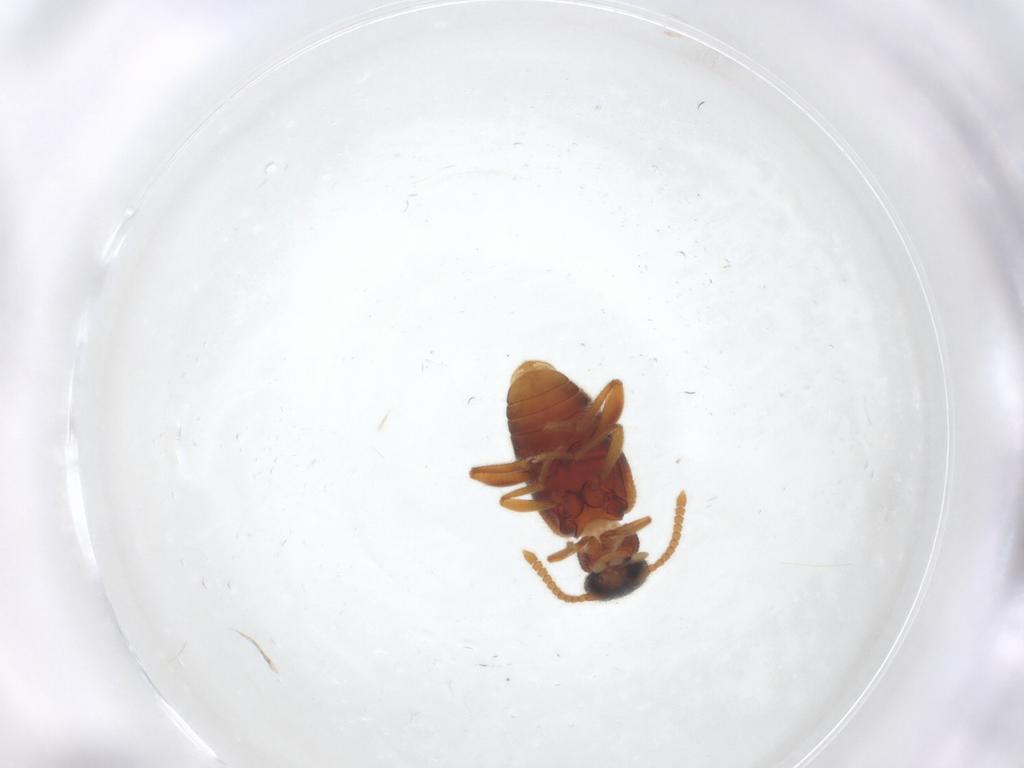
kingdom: Animalia
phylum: Arthropoda
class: Insecta
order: Coleoptera
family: Aderidae
